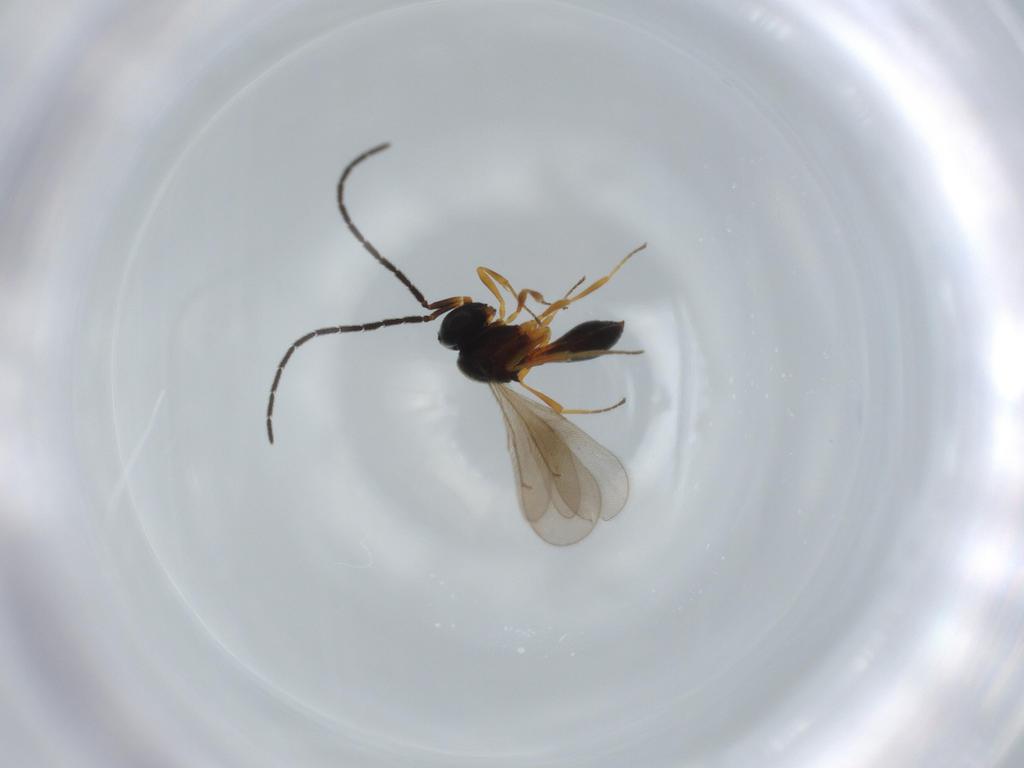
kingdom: Animalia
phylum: Arthropoda
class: Insecta
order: Hymenoptera
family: Scelionidae
